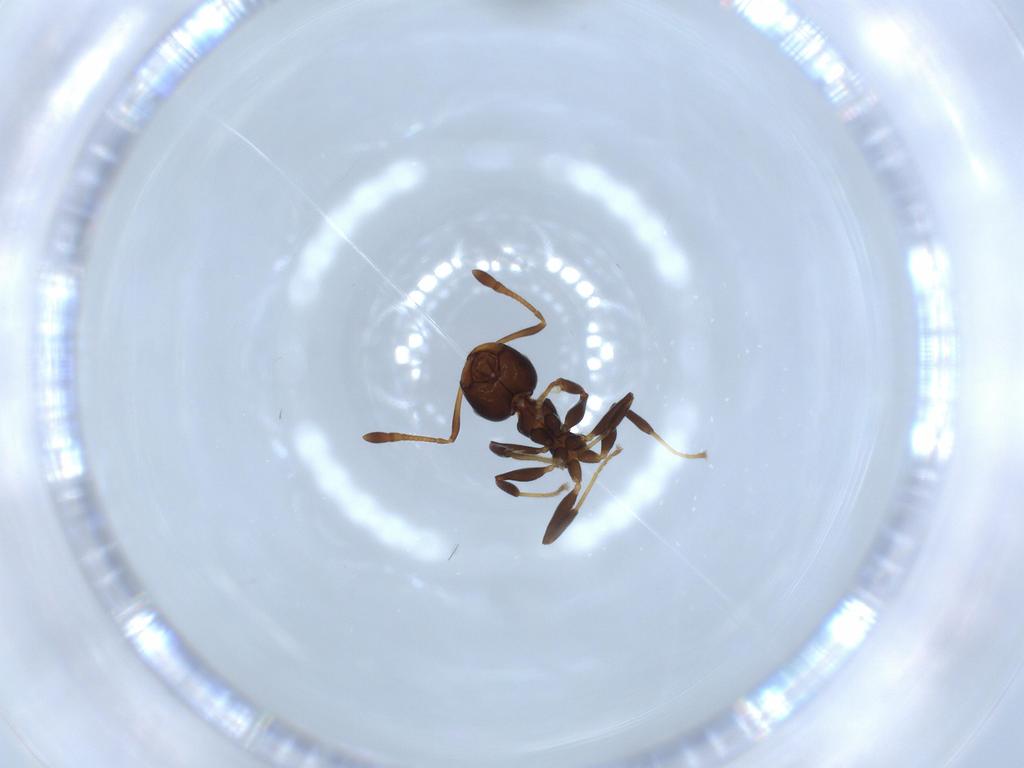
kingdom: Animalia
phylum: Arthropoda
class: Insecta
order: Hymenoptera
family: Formicidae
